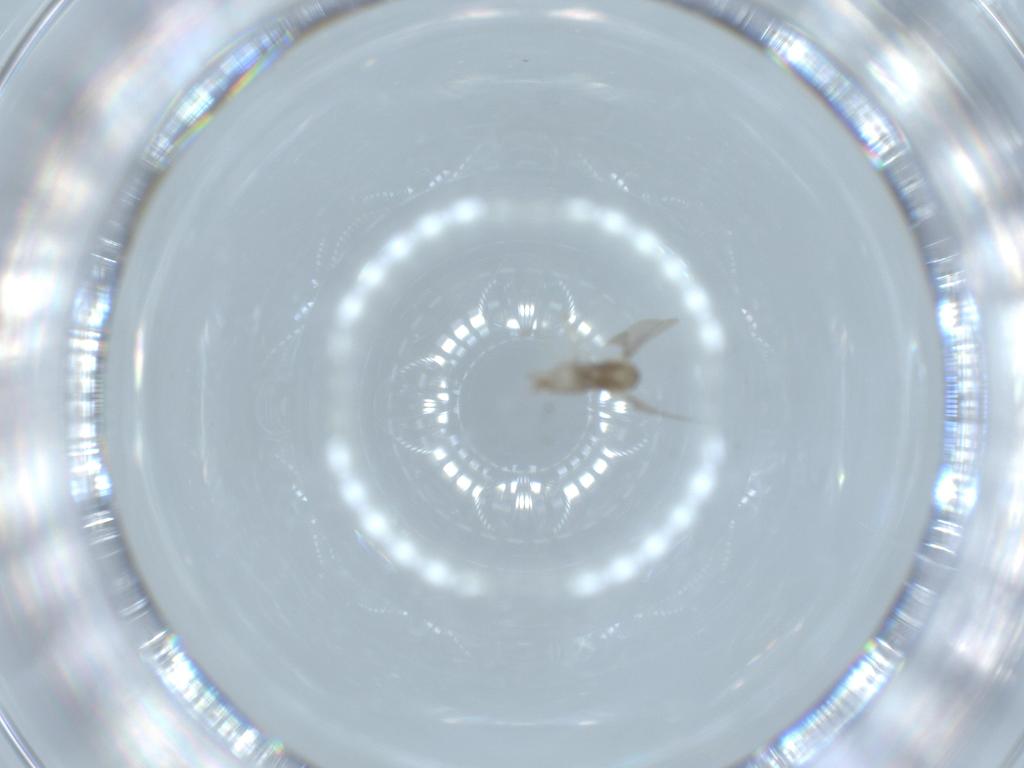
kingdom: Animalia
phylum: Arthropoda
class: Insecta
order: Diptera
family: Cecidomyiidae
